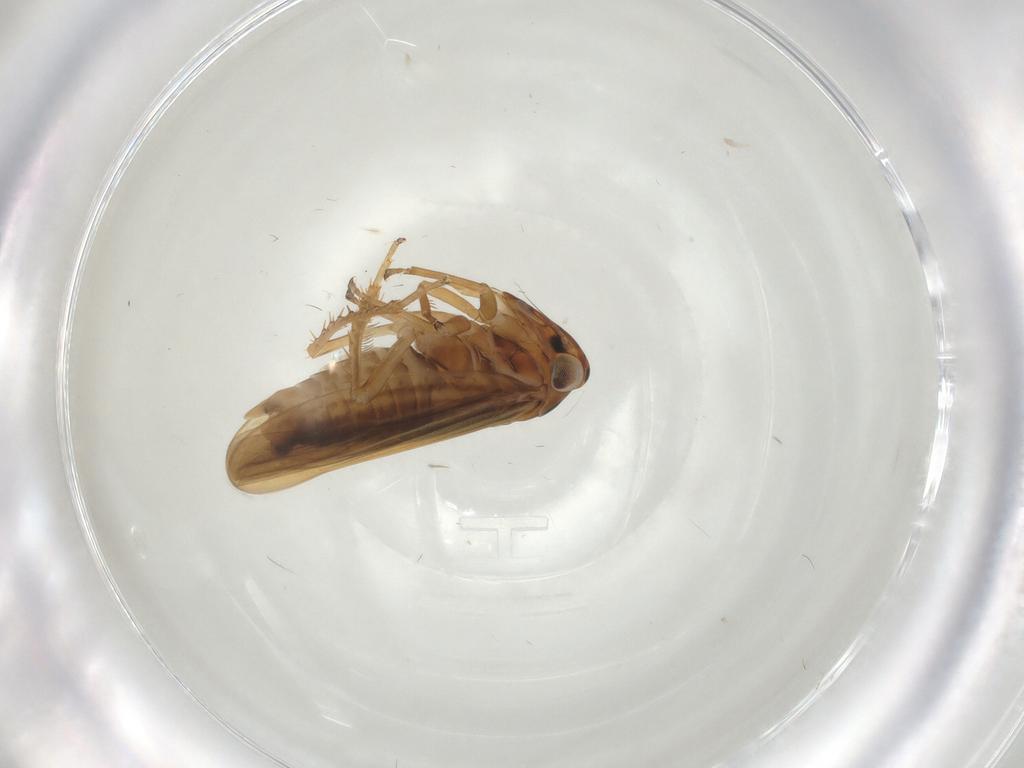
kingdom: Animalia
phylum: Arthropoda
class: Insecta
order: Hemiptera
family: Cicadellidae
